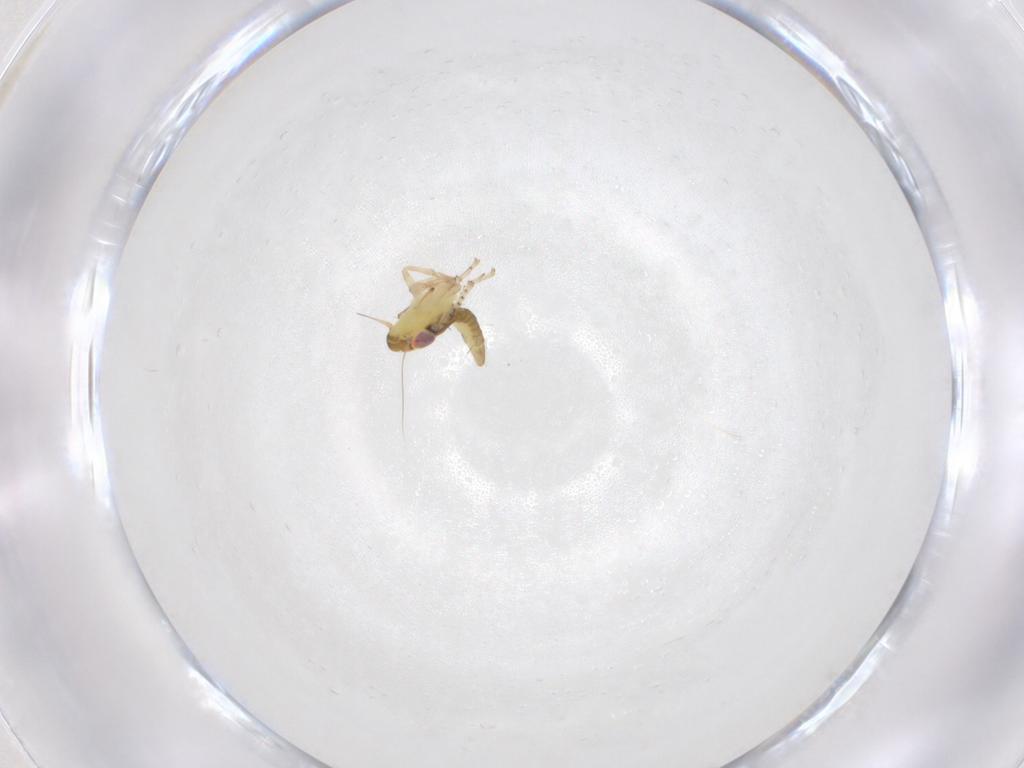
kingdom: Animalia
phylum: Arthropoda
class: Insecta
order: Hemiptera
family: Cicadellidae
